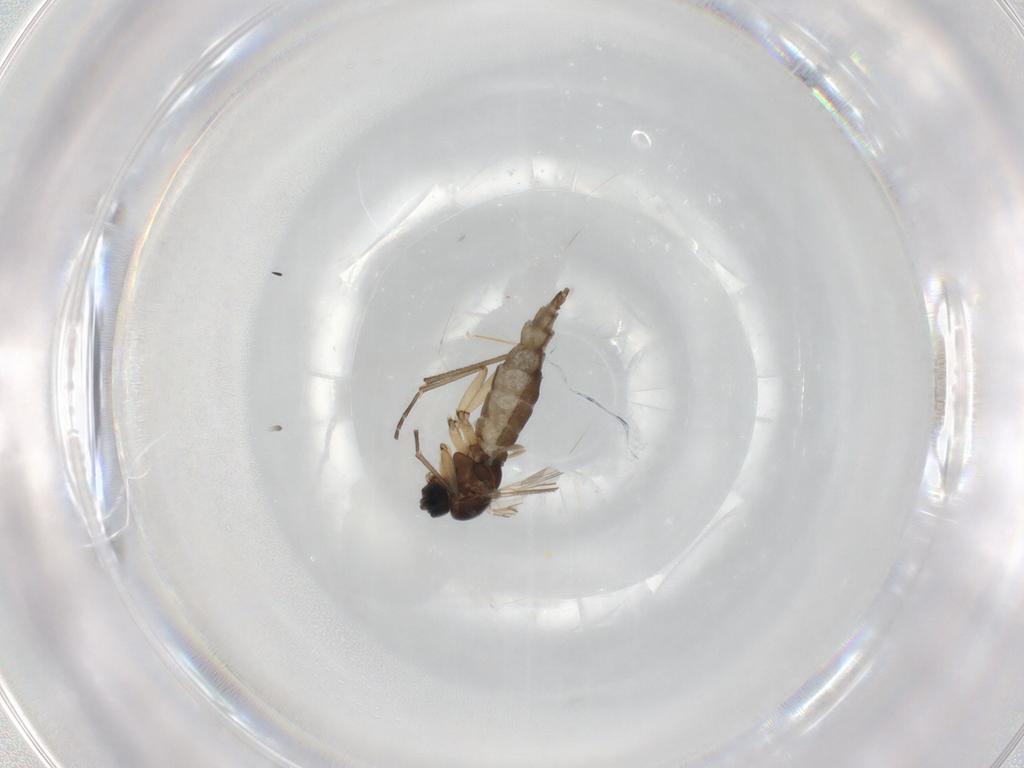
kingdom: Animalia
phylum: Arthropoda
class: Insecta
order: Diptera
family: Sciaridae
